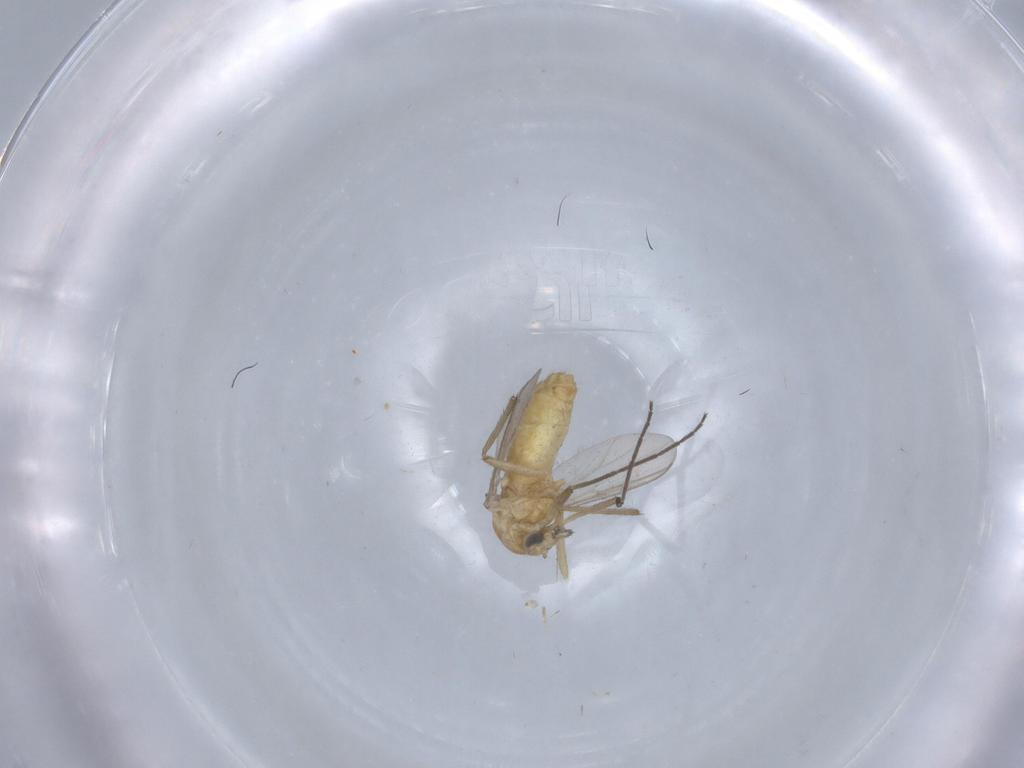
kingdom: Animalia
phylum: Arthropoda
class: Insecta
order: Diptera
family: Chironomidae
